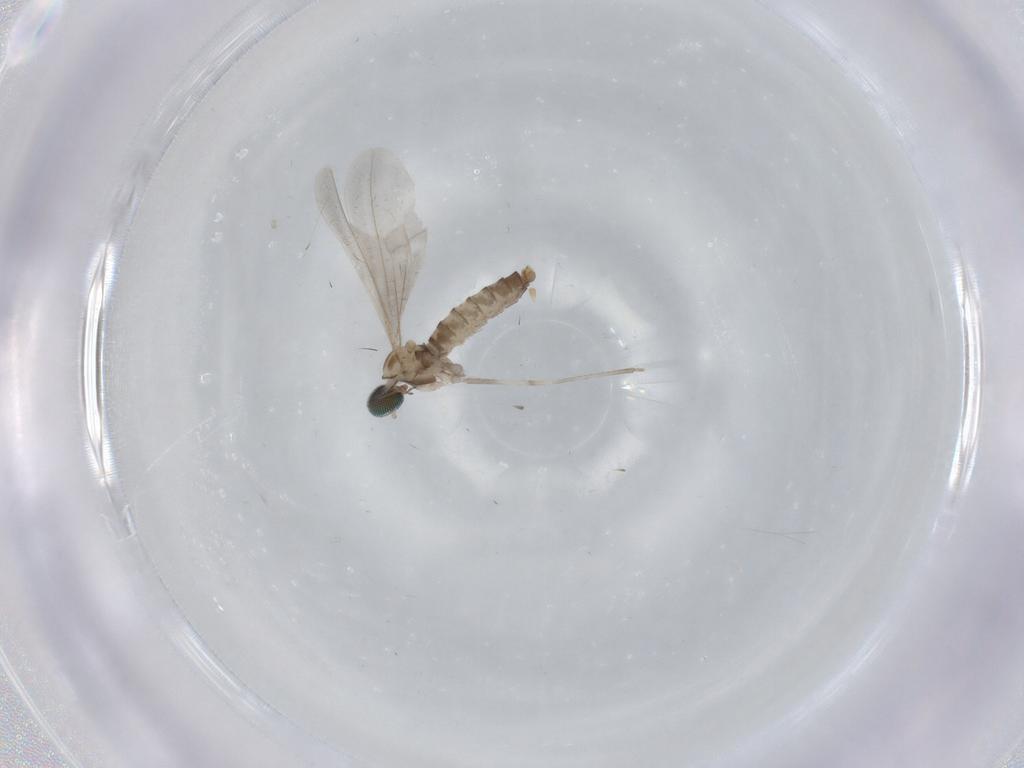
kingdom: Animalia
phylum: Arthropoda
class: Insecta
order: Diptera
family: Cecidomyiidae
